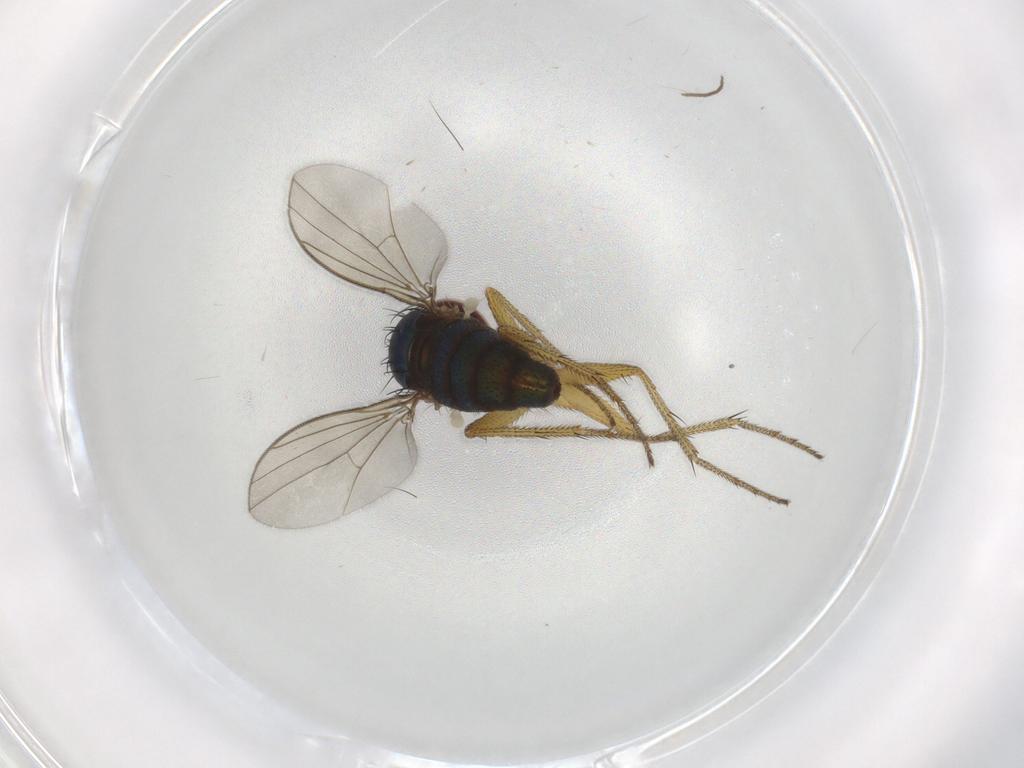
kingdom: Animalia
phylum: Arthropoda
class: Insecta
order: Diptera
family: Dolichopodidae
